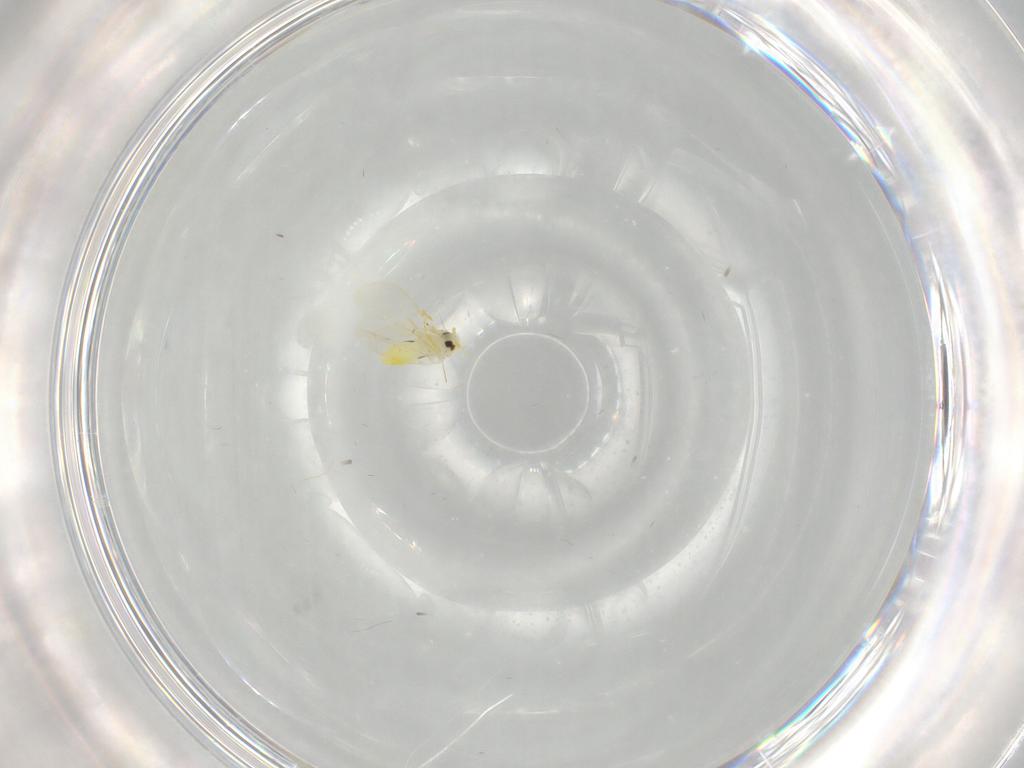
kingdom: Animalia
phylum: Arthropoda
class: Insecta
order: Hemiptera
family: Aleyrodidae
